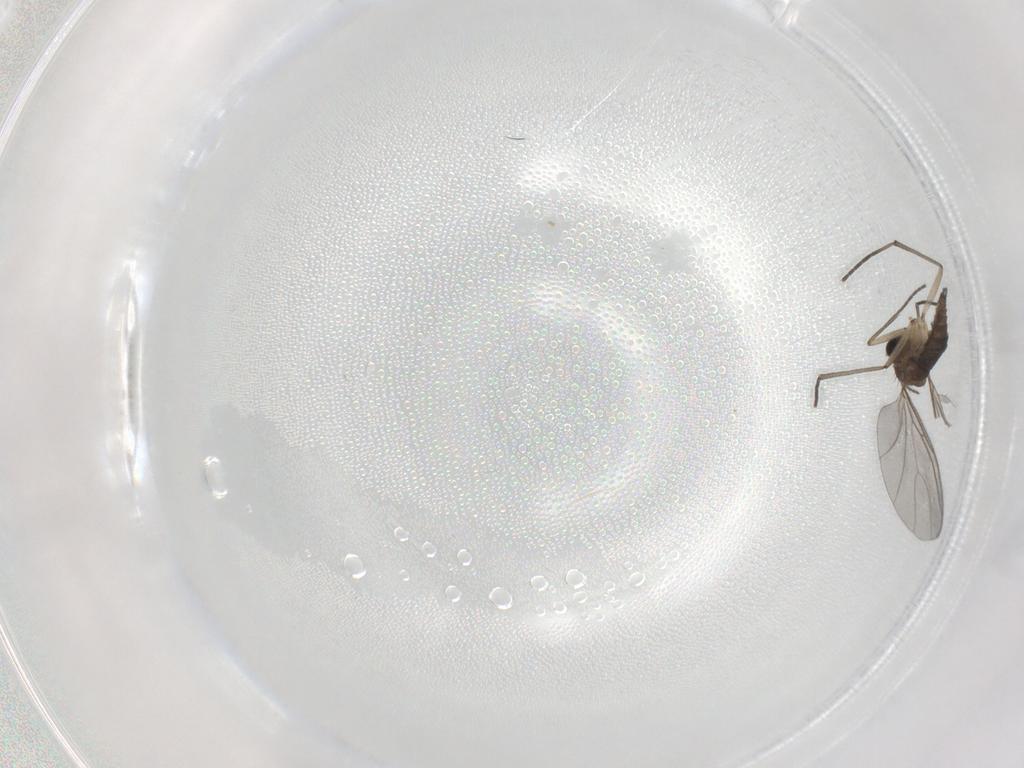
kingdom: Animalia
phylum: Arthropoda
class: Insecta
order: Diptera
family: Sciaridae
